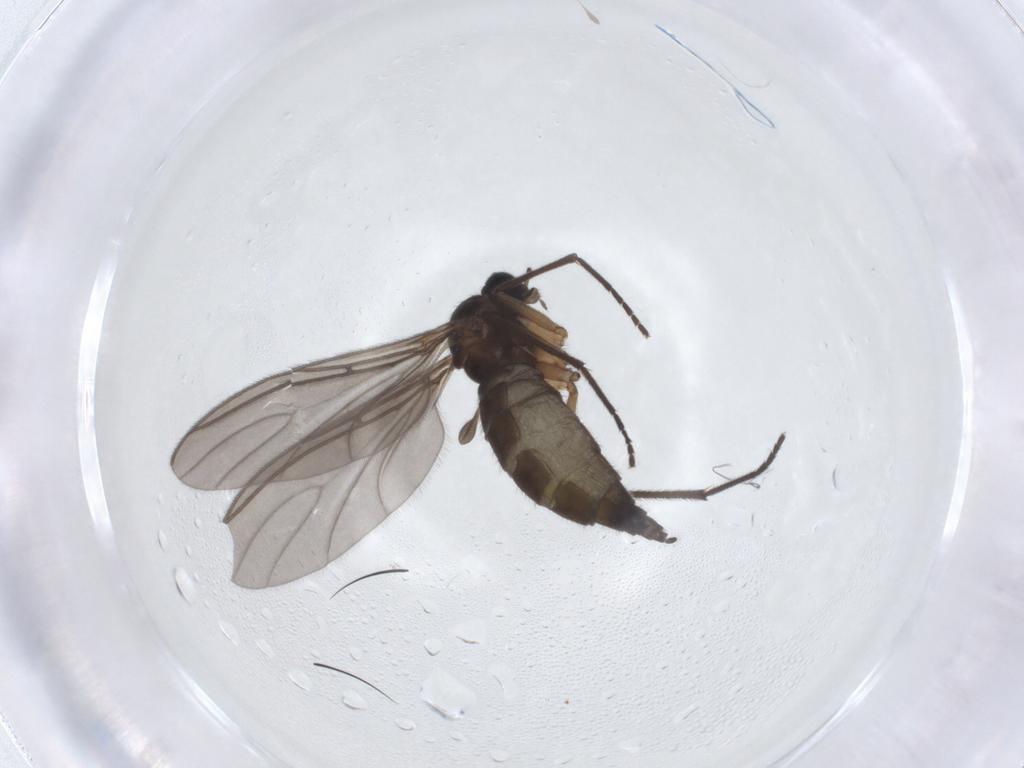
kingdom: Animalia
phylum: Arthropoda
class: Insecta
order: Diptera
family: Sciaridae
